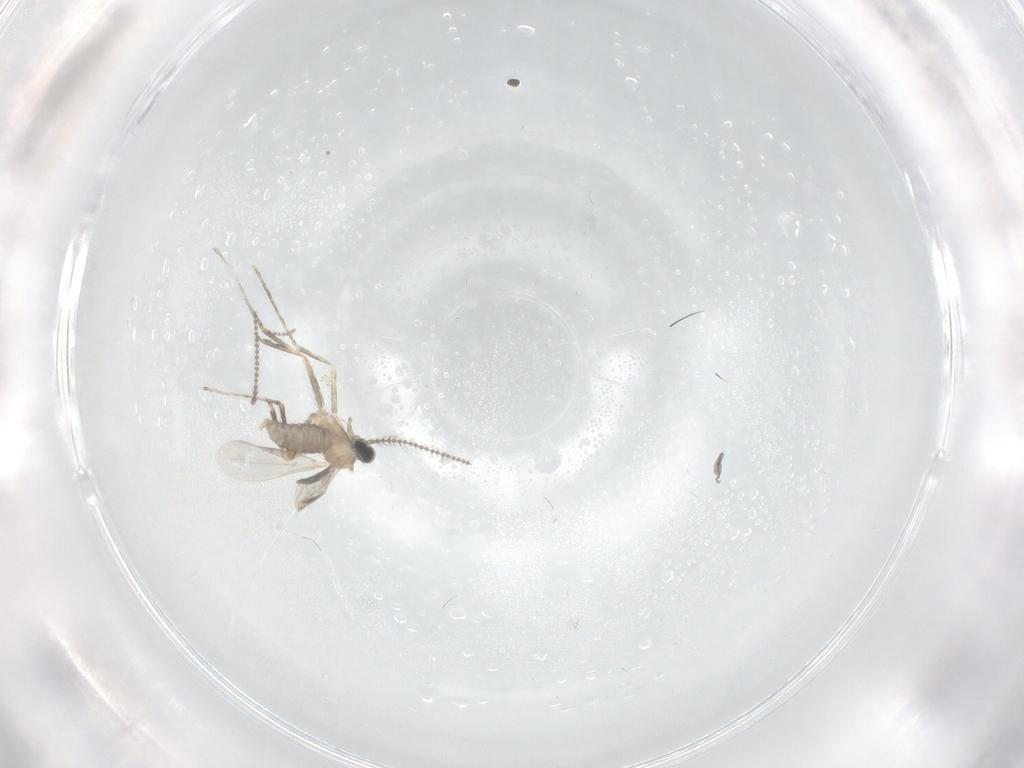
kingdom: Animalia
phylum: Arthropoda
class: Insecta
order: Diptera
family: Cecidomyiidae
